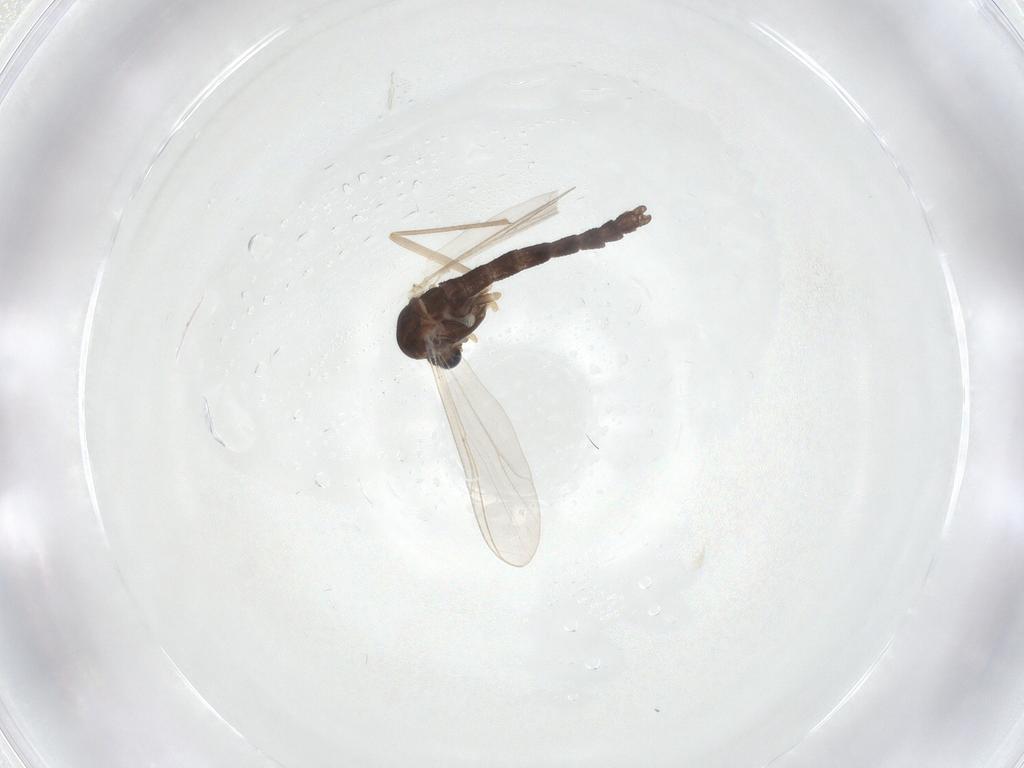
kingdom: Animalia
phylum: Arthropoda
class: Insecta
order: Diptera
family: Chironomidae
